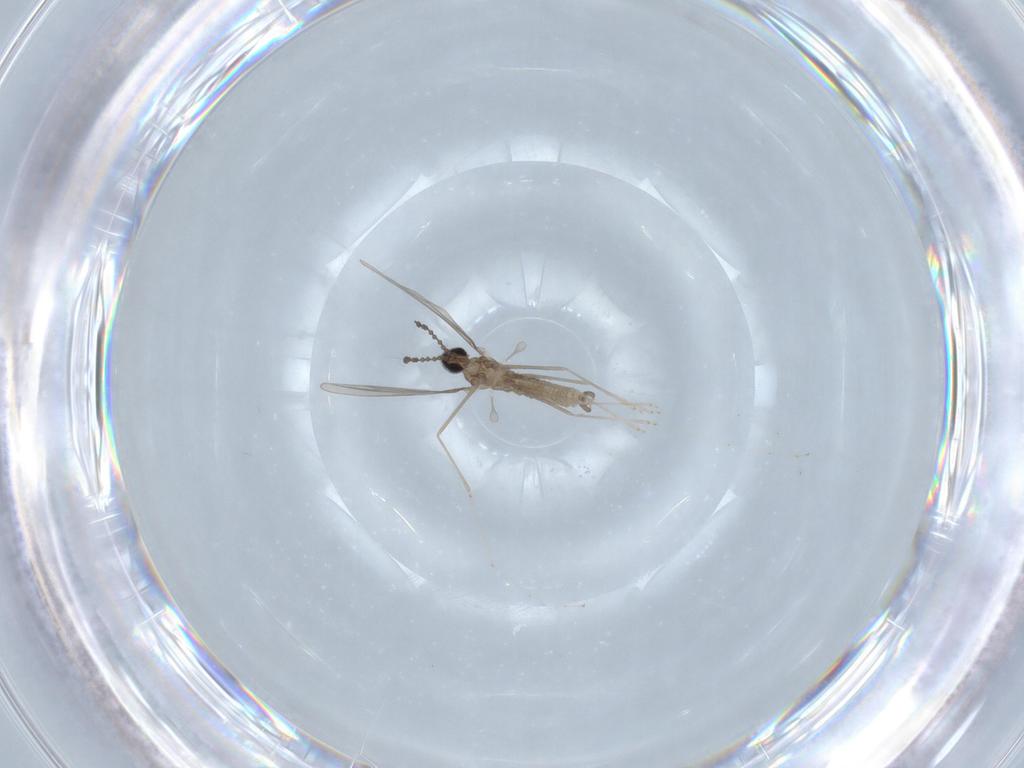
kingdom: Animalia
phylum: Arthropoda
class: Insecta
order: Diptera
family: Cecidomyiidae
